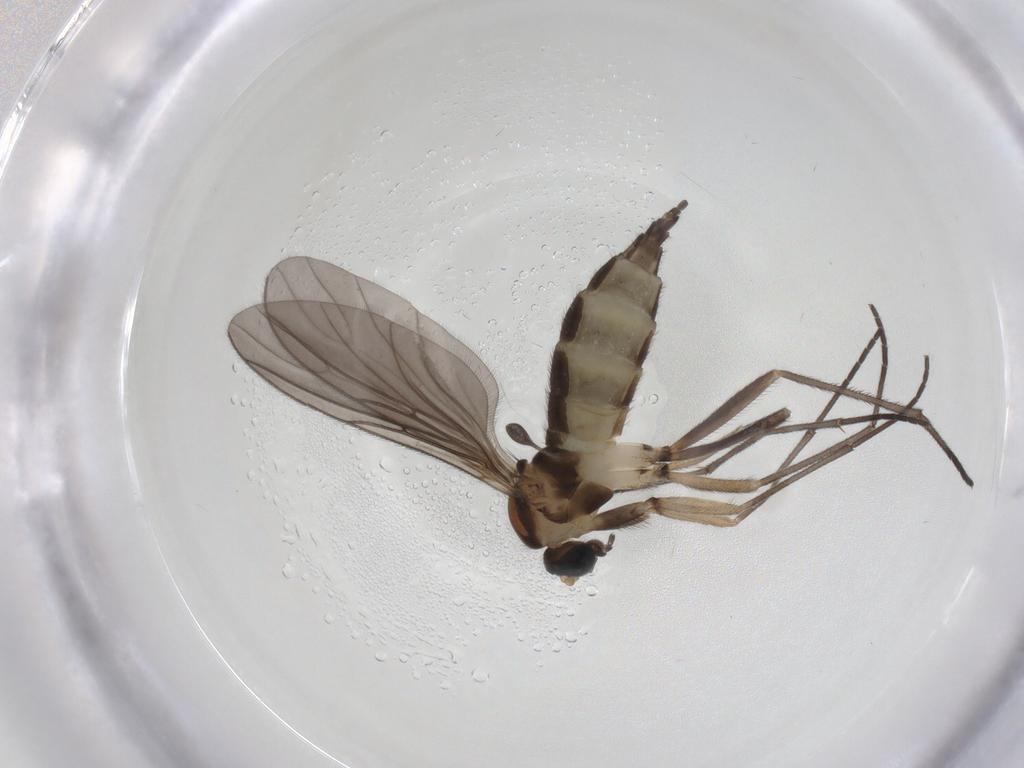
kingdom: Animalia
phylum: Arthropoda
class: Insecta
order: Diptera
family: Sciaridae
